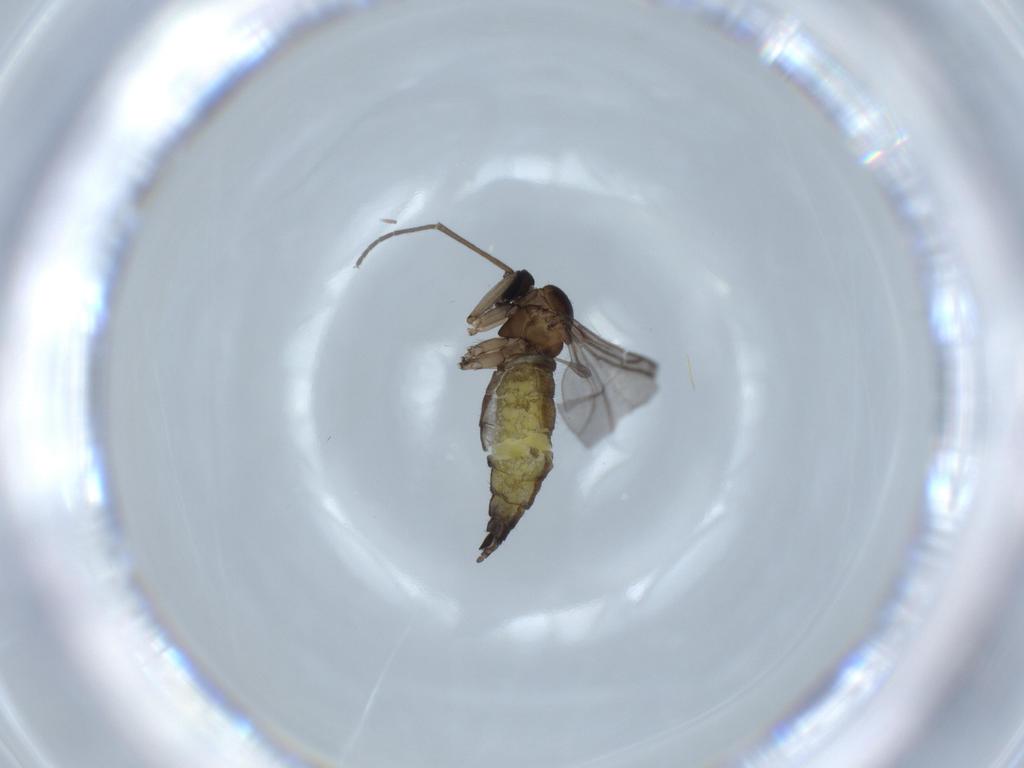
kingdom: Animalia
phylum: Arthropoda
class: Insecta
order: Diptera
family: Sciaridae
